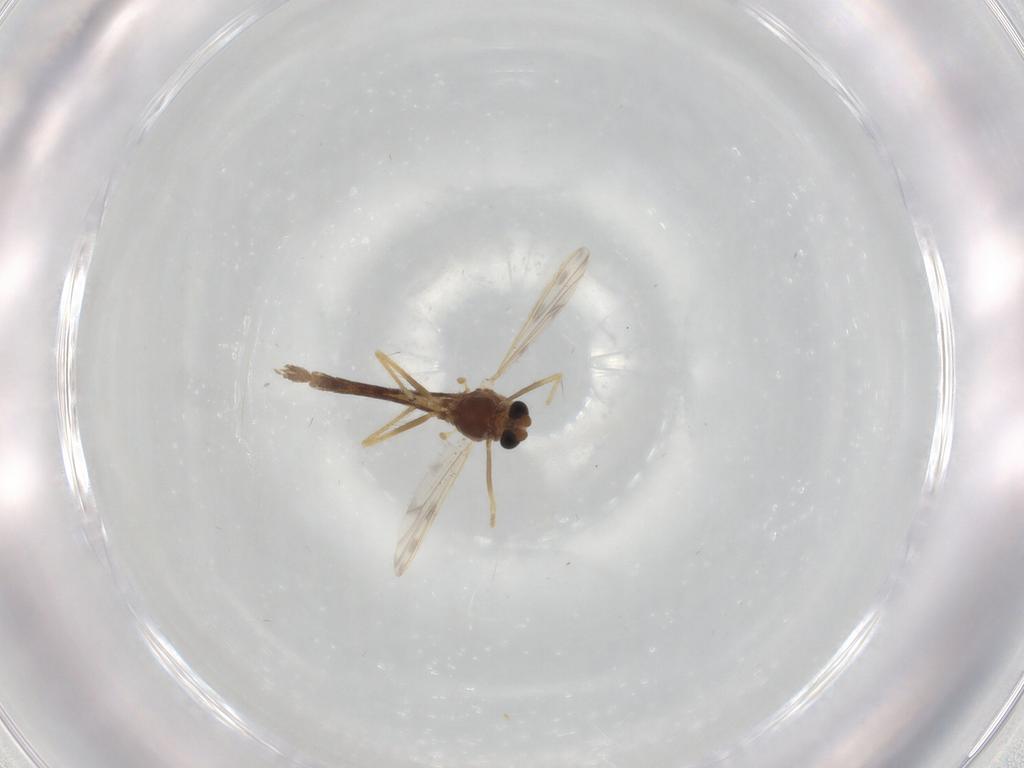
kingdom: Animalia
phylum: Arthropoda
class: Insecta
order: Diptera
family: Chironomidae
